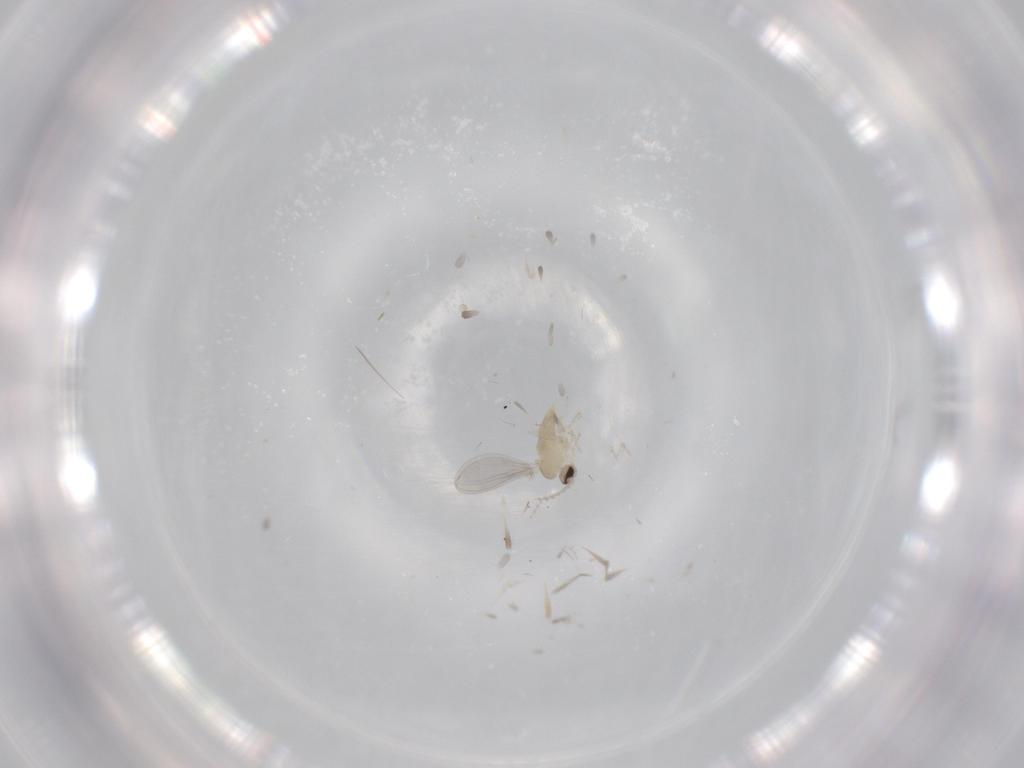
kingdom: Animalia
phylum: Arthropoda
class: Insecta
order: Diptera
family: Cecidomyiidae
